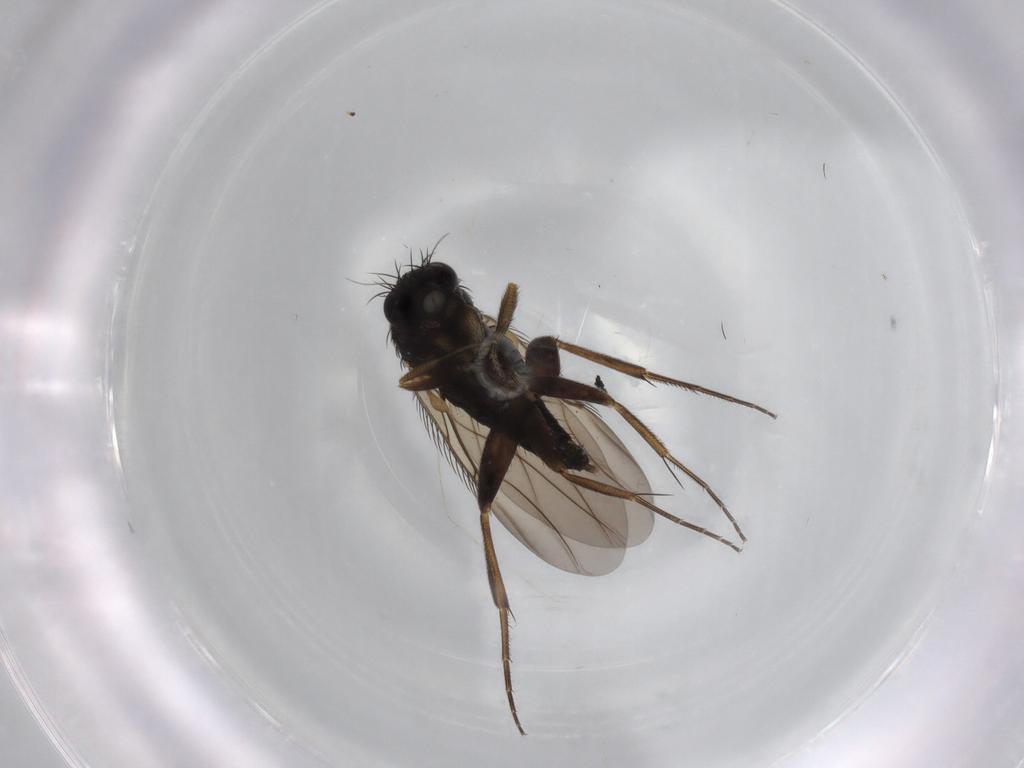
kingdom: Animalia
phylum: Arthropoda
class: Insecta
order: Diptera
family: Phoridae
